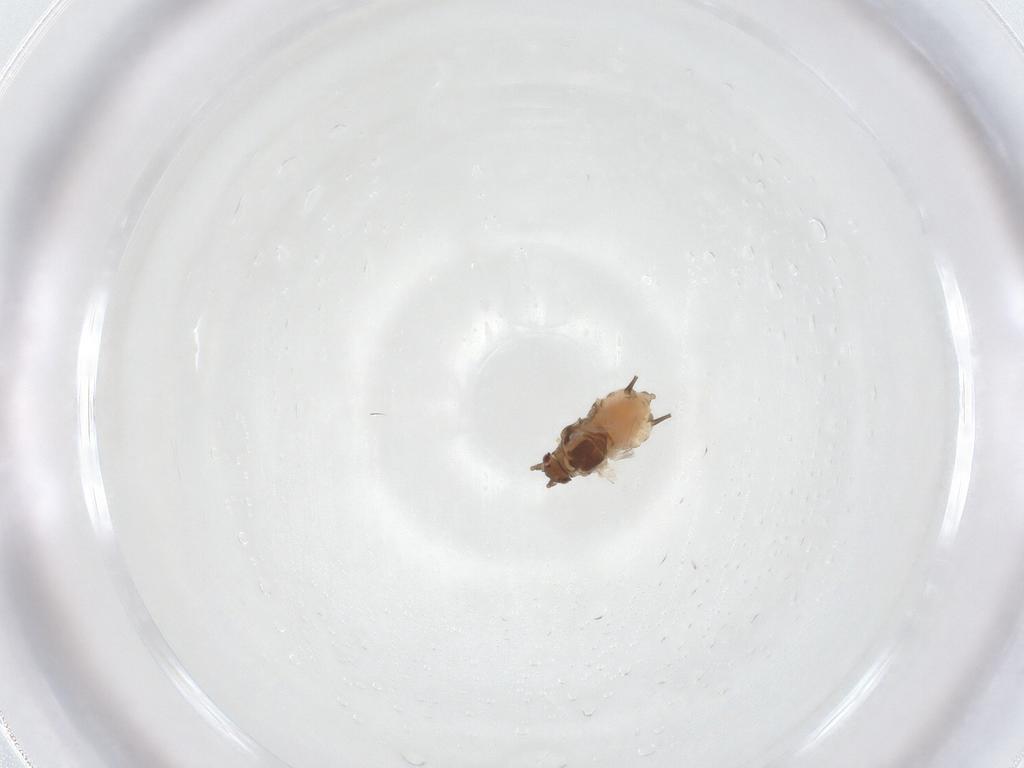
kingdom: Animalia
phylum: Arthropoda
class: Insecta
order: Hemiptera
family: Aphididae
